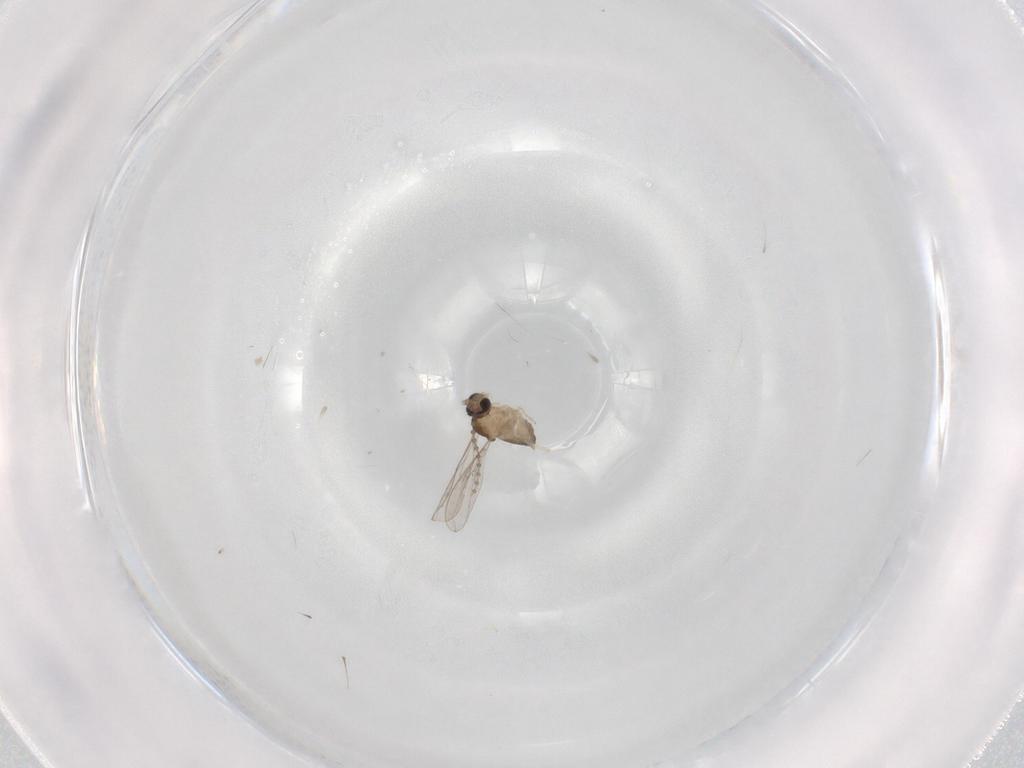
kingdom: Animalia
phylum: Arthropoda
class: Insecta
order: Diptera
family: Cecidomyiidae
